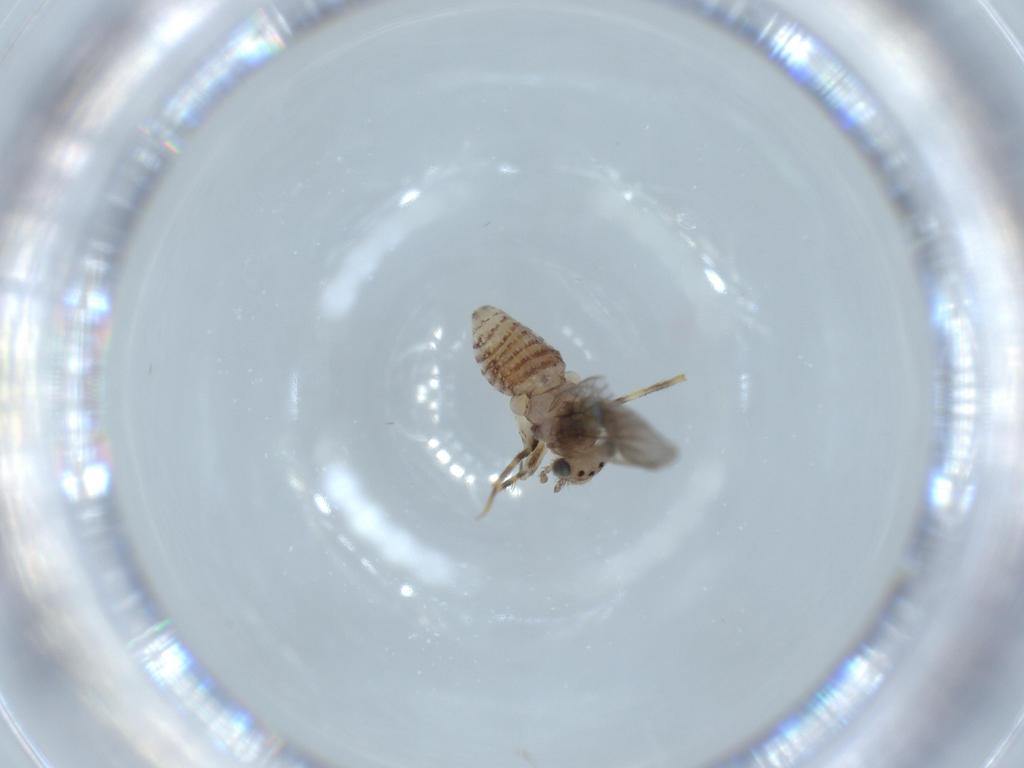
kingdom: Animalia
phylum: Arthropoda
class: Insecta
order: Psocodea
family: Lepidopsocidae
